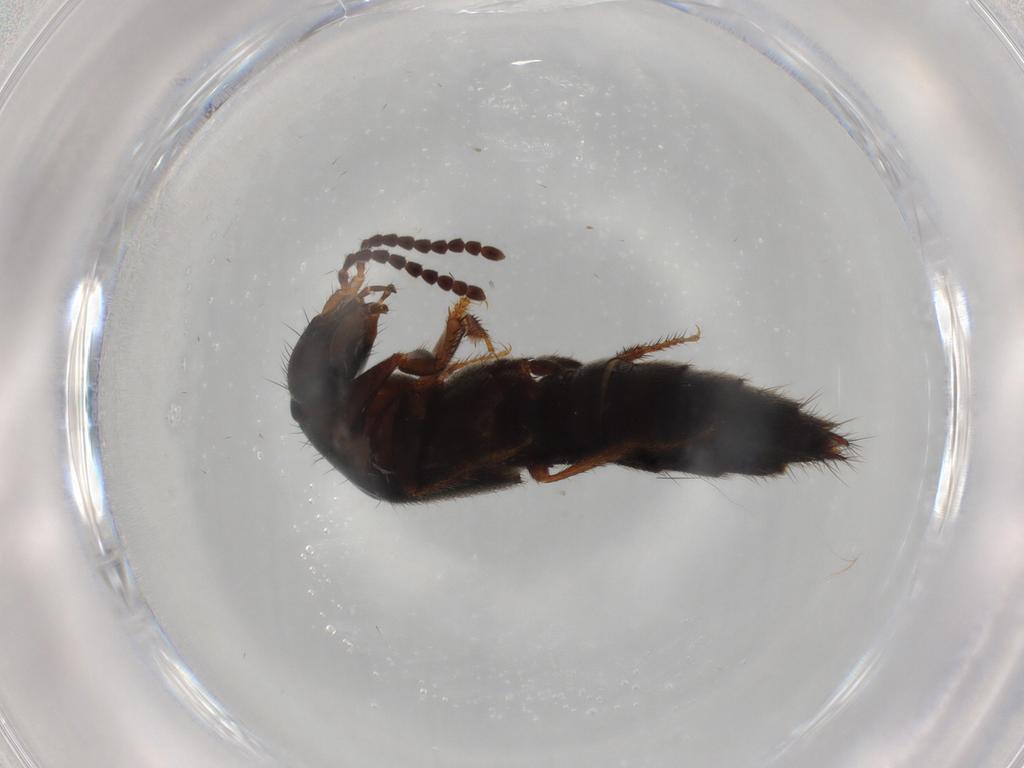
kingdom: Animalia
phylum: Arthropoda
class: Insecta
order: Coleoptera
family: Staphylinidae
